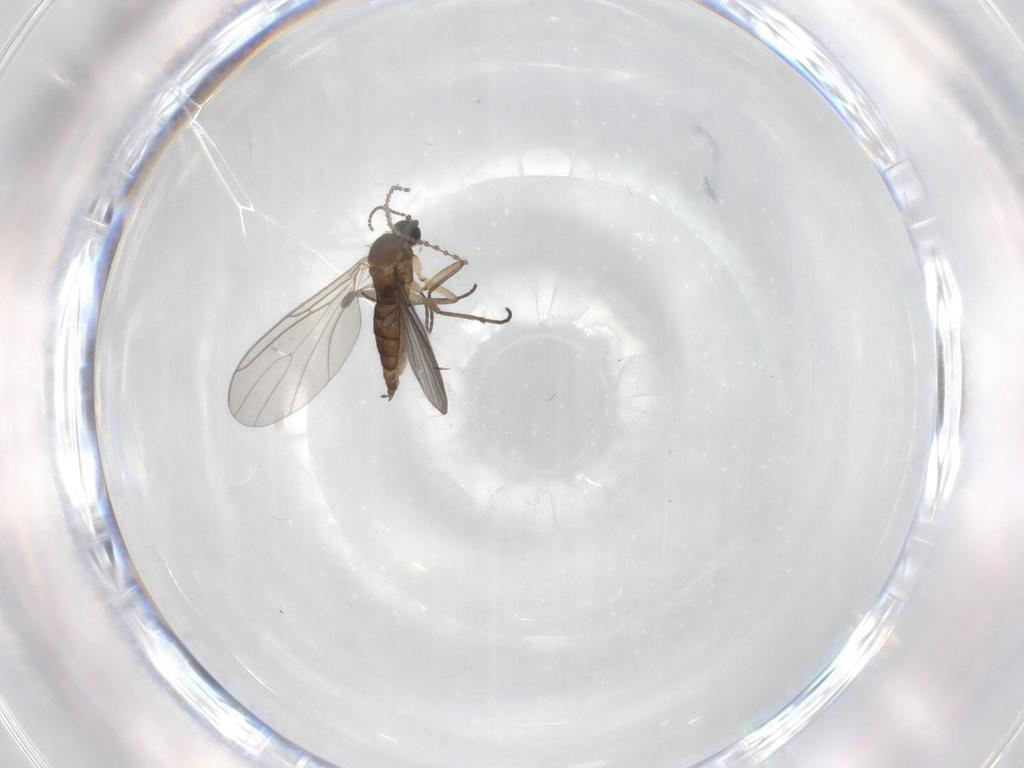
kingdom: Animalia
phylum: Arthropoda
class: Insecta
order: Diptera
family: Sciaridae
